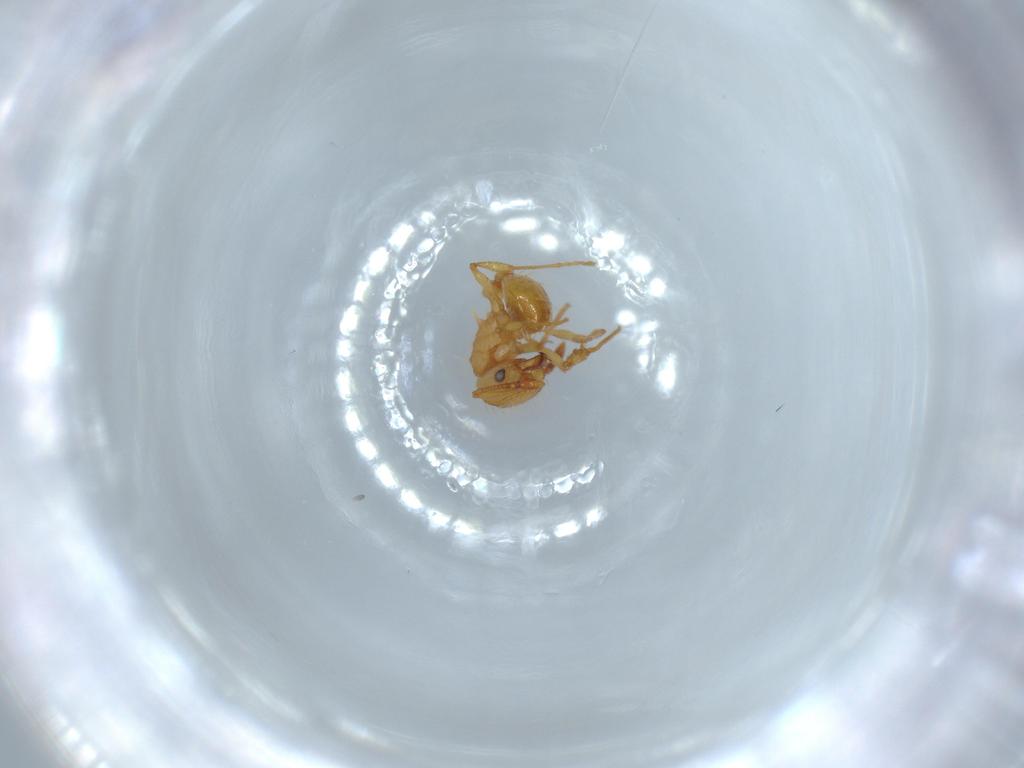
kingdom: Animalia
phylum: Arthropoda
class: Insecta
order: Hymenoptera
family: Formicidae
